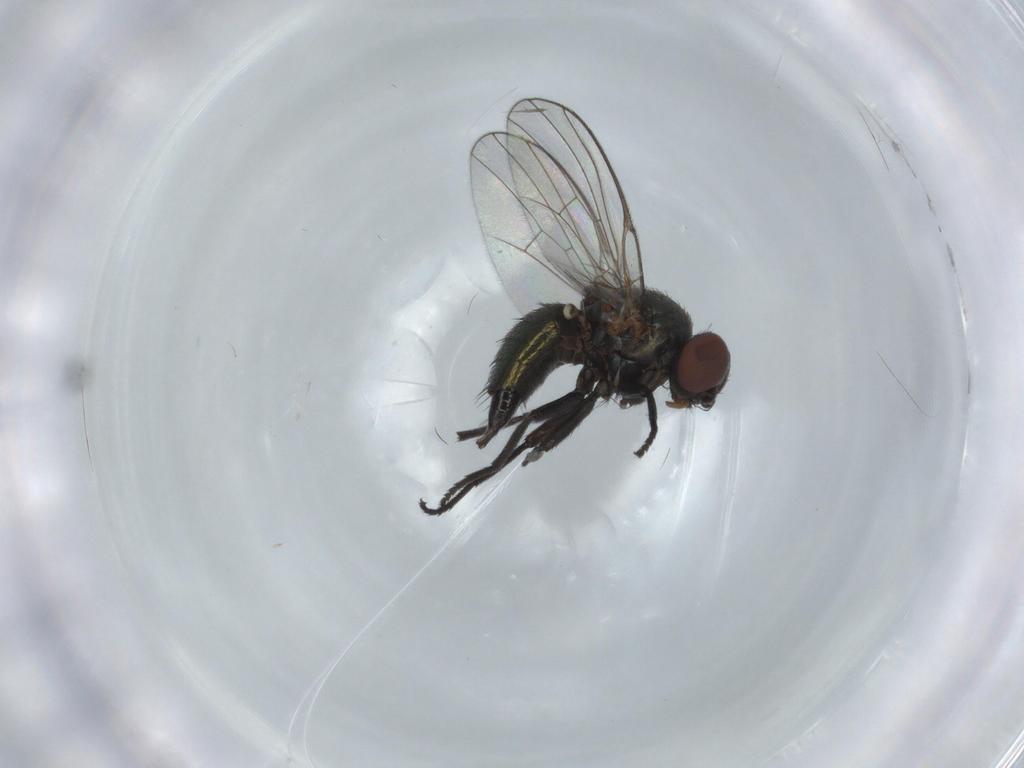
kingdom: Animalia
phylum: Arthropoda
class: Insecta
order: Diptera
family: Agromyzidae
